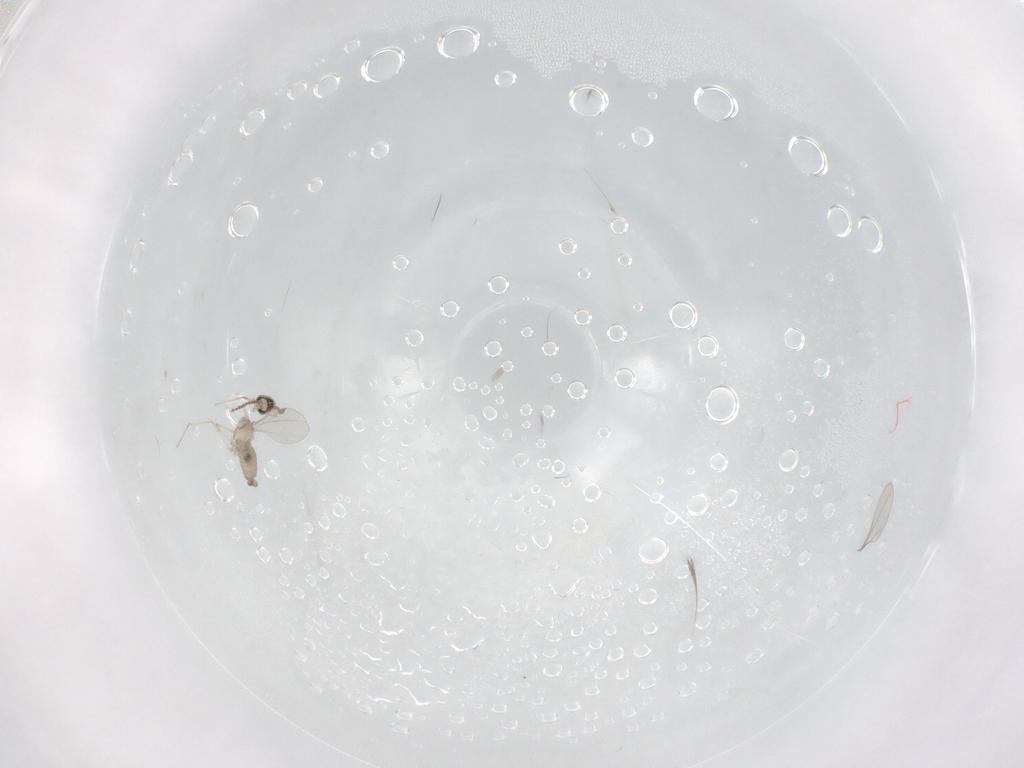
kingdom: Animalia
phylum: Arthropoda
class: Insecta
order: Diptera
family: Cecidomyiidae
